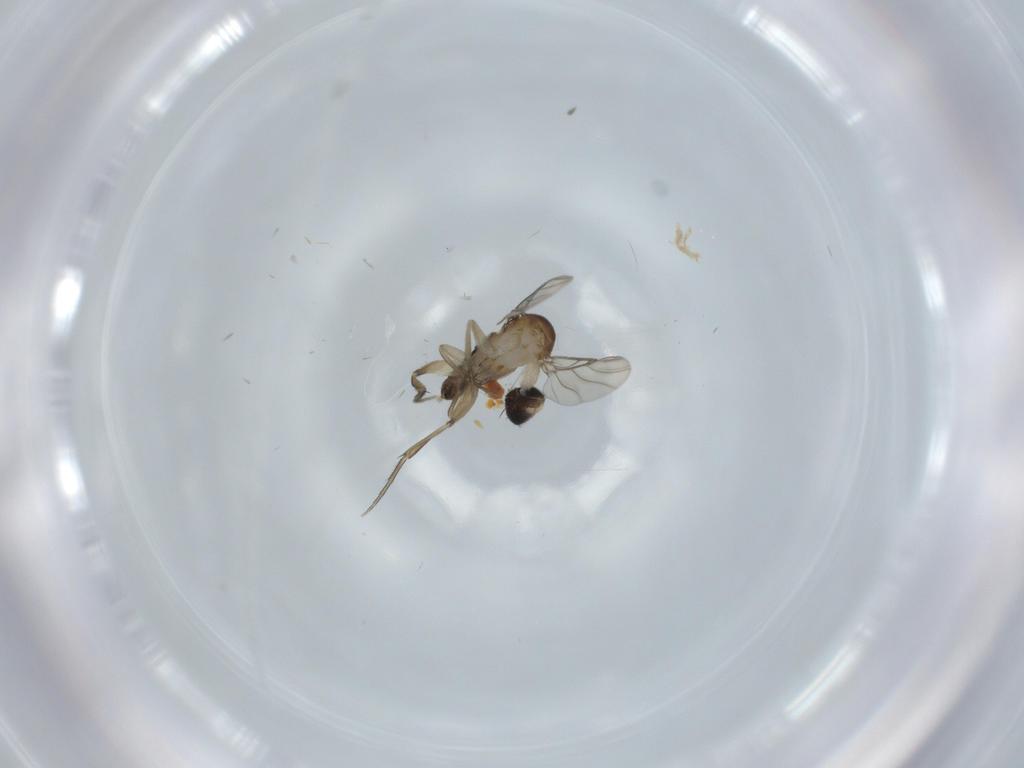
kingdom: Animalia
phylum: Arthropoda
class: Insecta
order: Diptera
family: Phoridae
